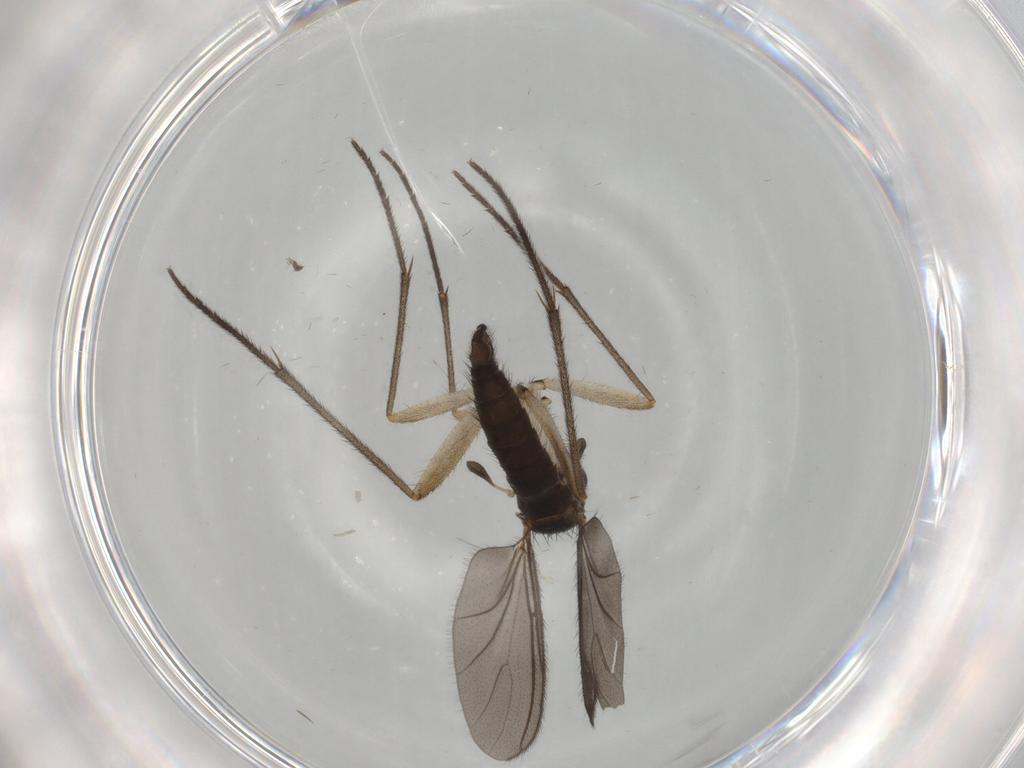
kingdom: Animalia
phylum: Arthropoda
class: Insecta
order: Diptera
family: Sciaridae
